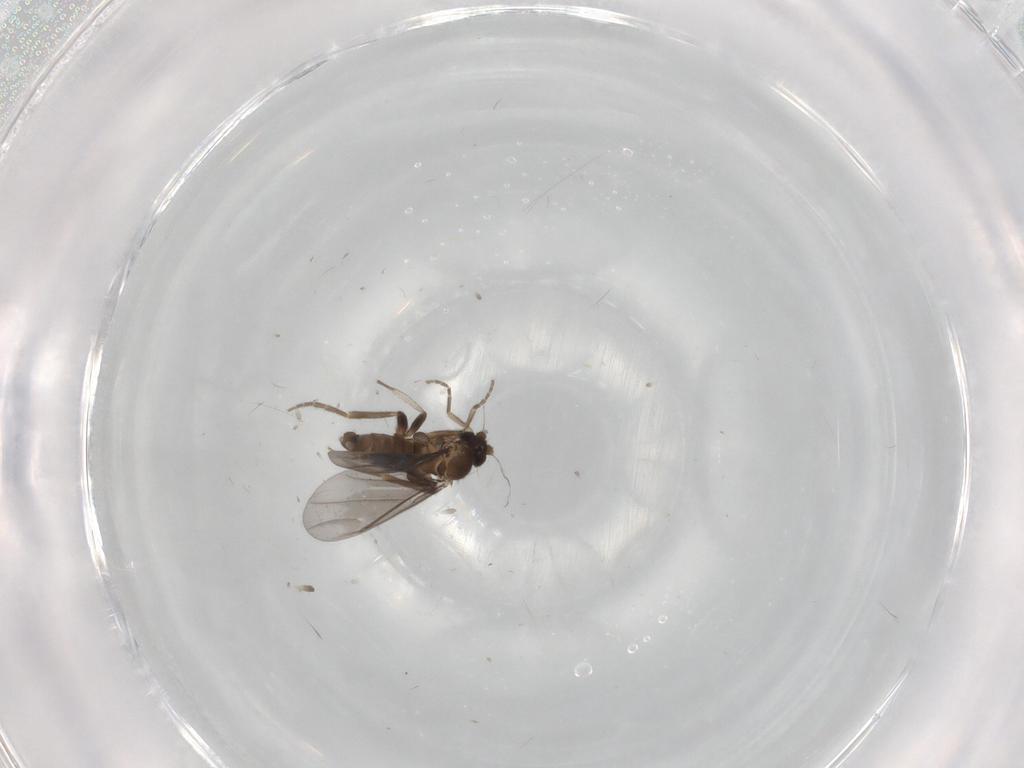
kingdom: Animalia
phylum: Arthropoda
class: Insecta
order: Diptera
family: Phoridae
